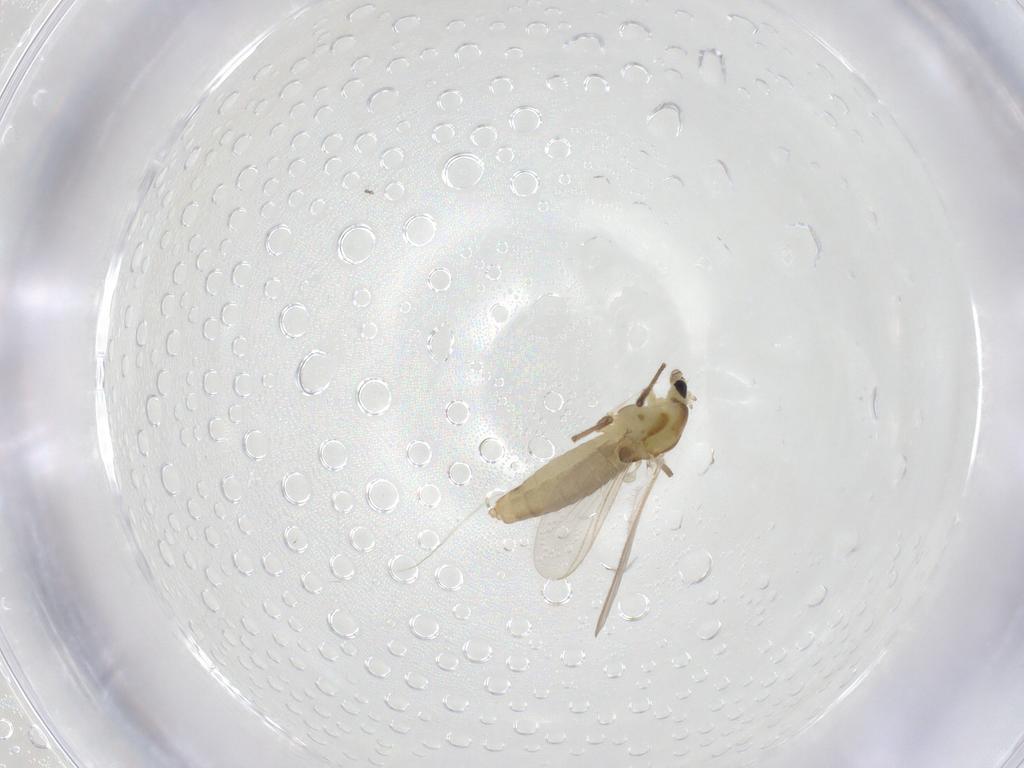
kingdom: Animalia
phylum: Arthropoda
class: Insecta
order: Diptera
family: Chironomidae
